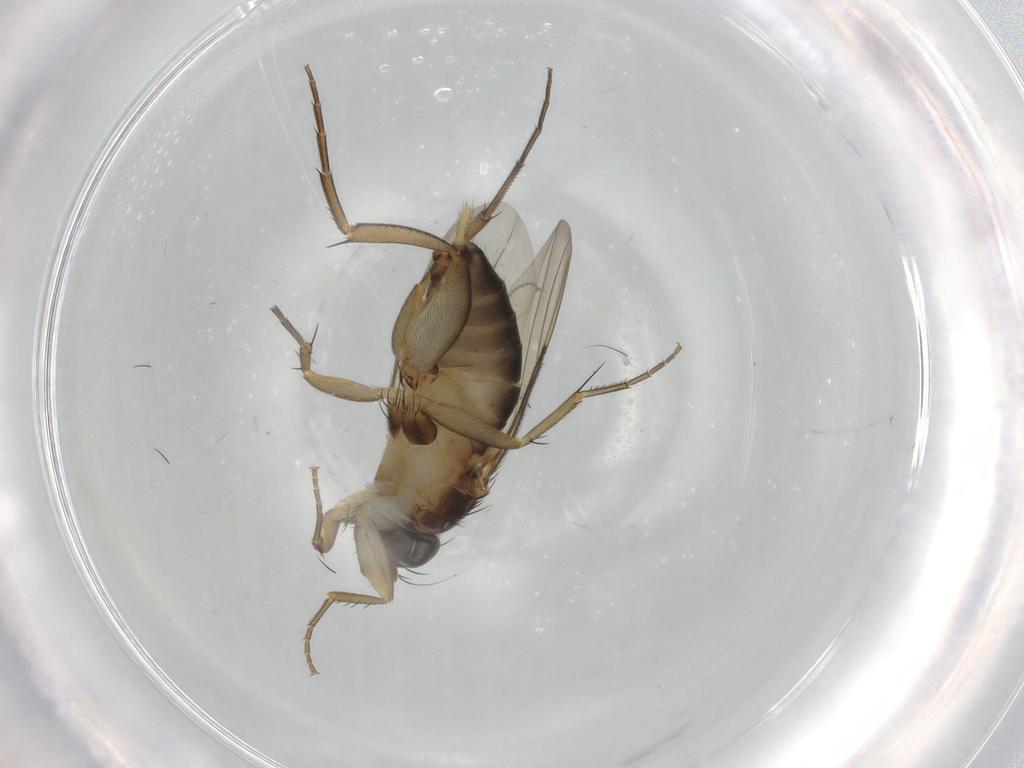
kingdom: Animalia
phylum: Arthropoda
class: Insecta
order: Diptera
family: Phoridae
